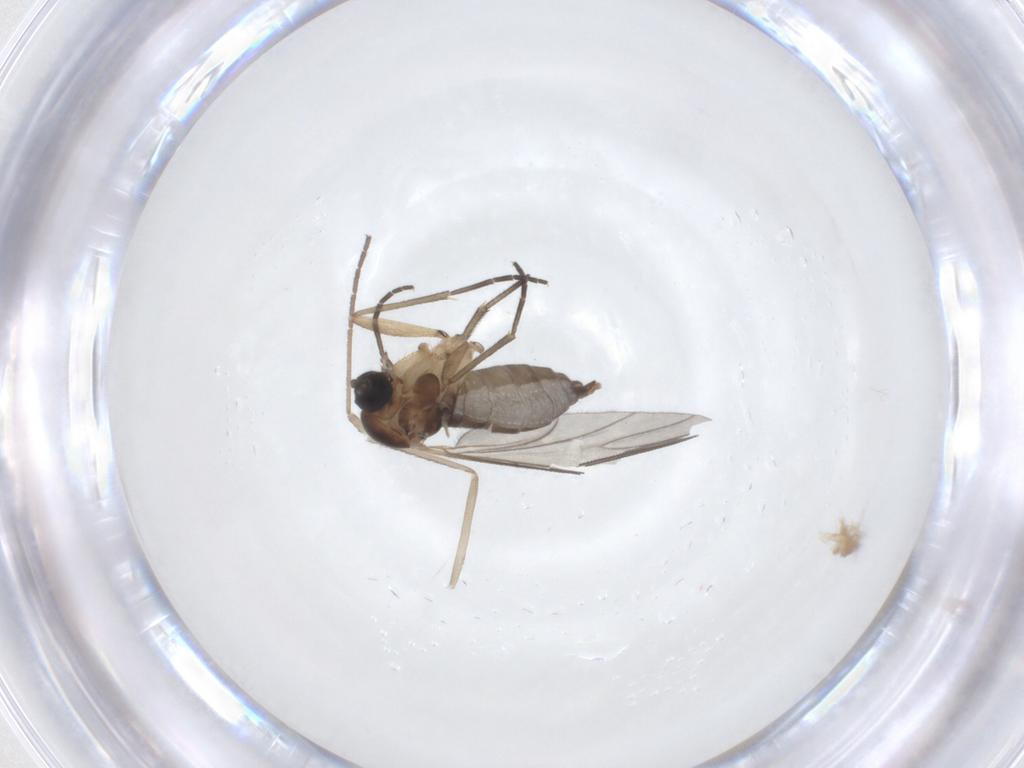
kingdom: Animalia
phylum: Arthropoda
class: Insecta
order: Diptera
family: Sciaridae
